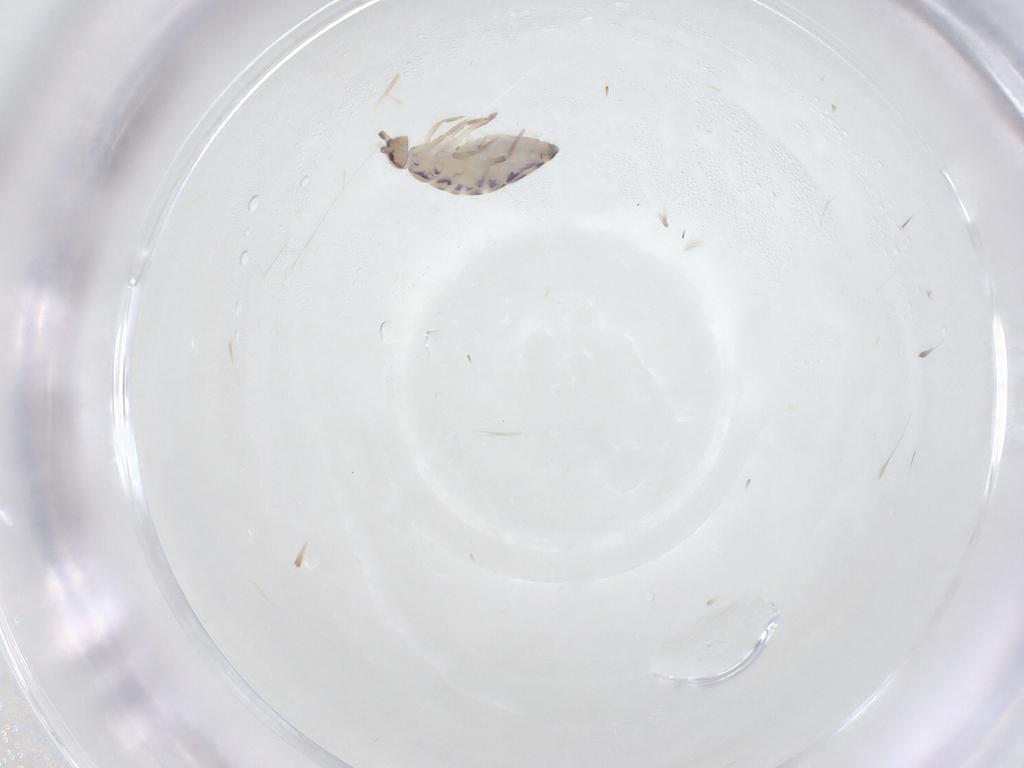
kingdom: Animalia
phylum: Arthropoda
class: Collembola
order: Entomobryomorpha
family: Entomobryidae
